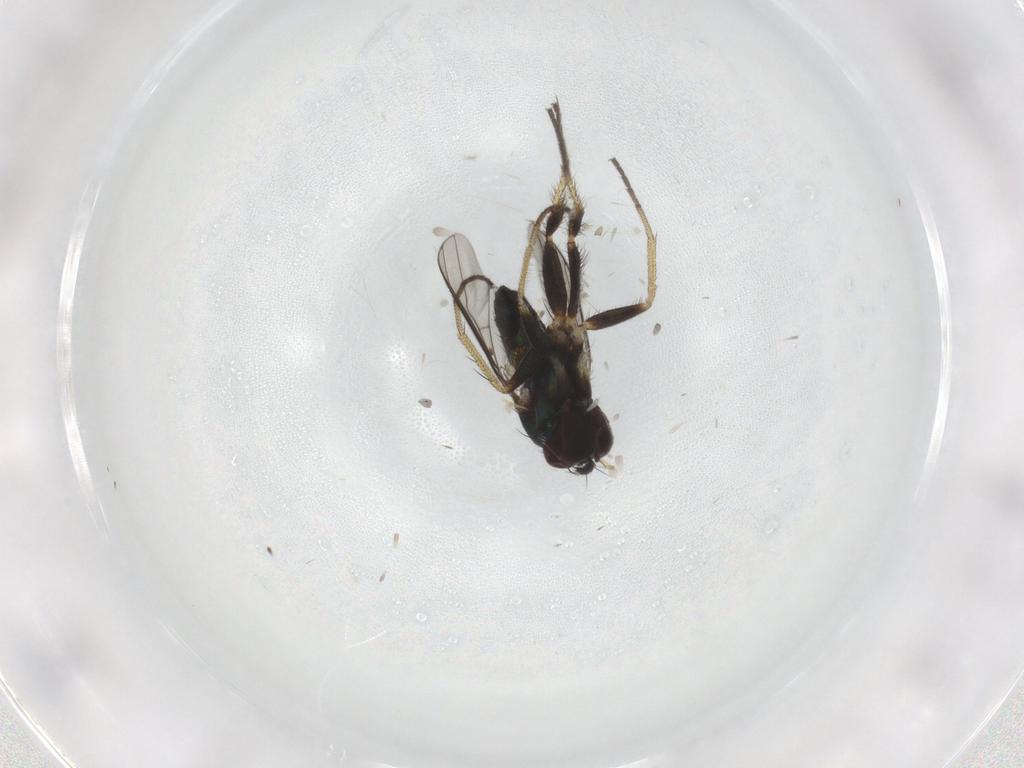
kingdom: Animalia
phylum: Arthropoda
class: Insecta
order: Diptera
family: Cecidomyiidae
